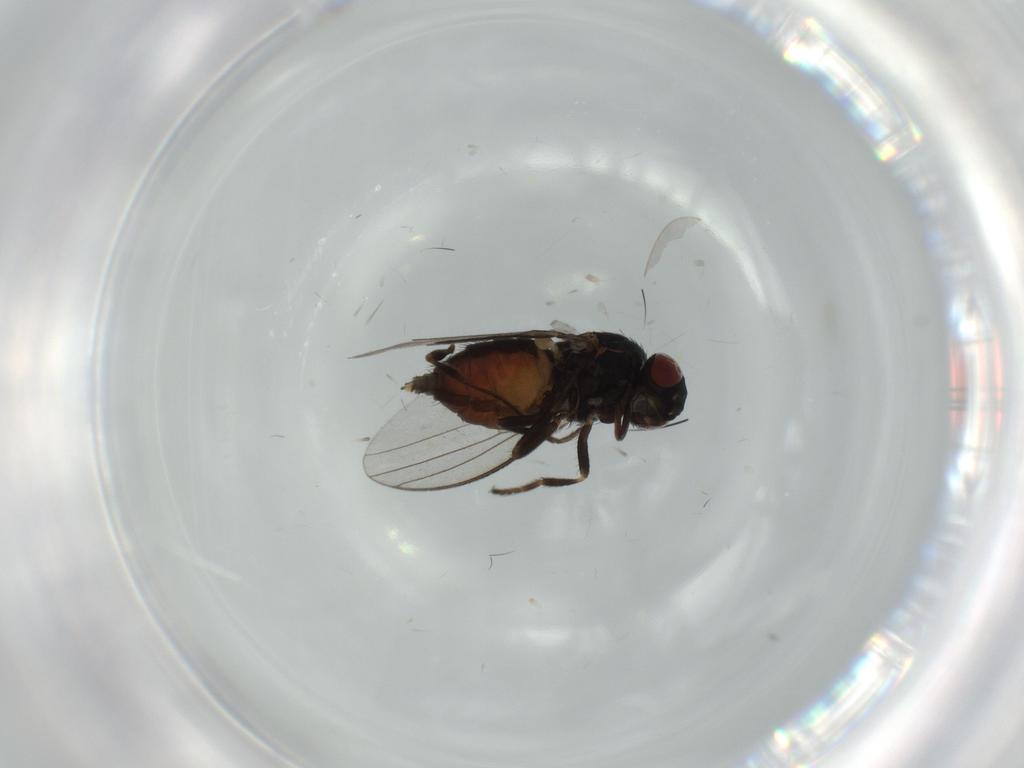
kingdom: Animalia
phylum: Arthropoda
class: Insecta
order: Diptera
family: Milichiidae
